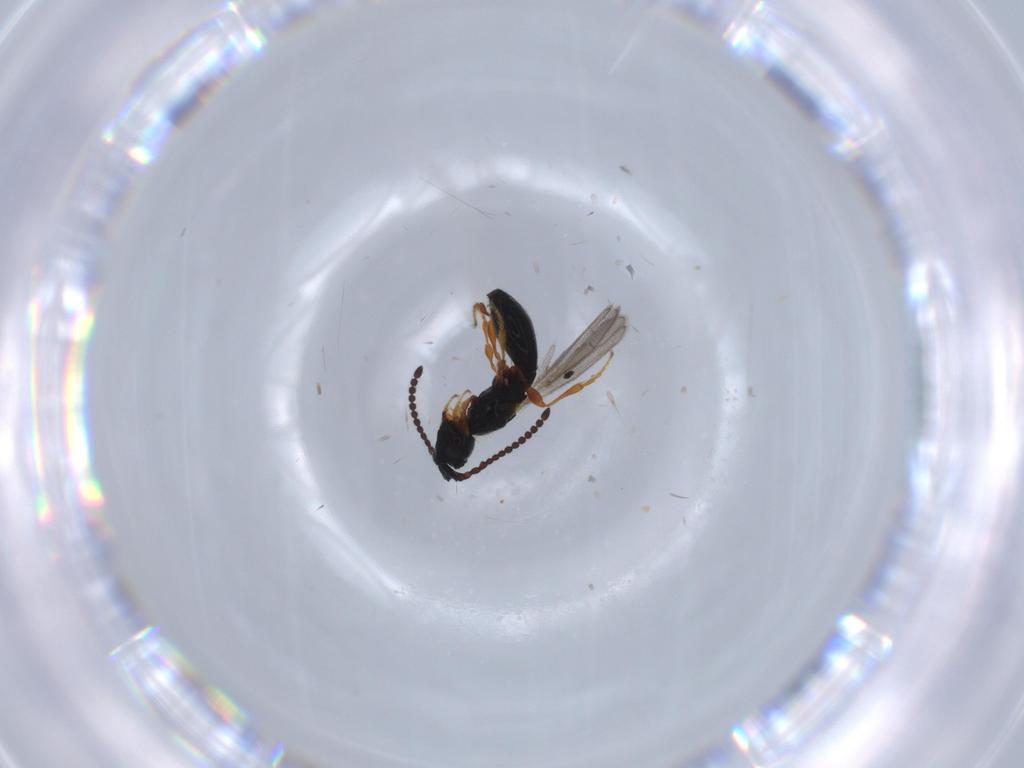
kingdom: Animalia
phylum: Arthropoda
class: Insecta
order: Hymenoptera
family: Diapriidae
